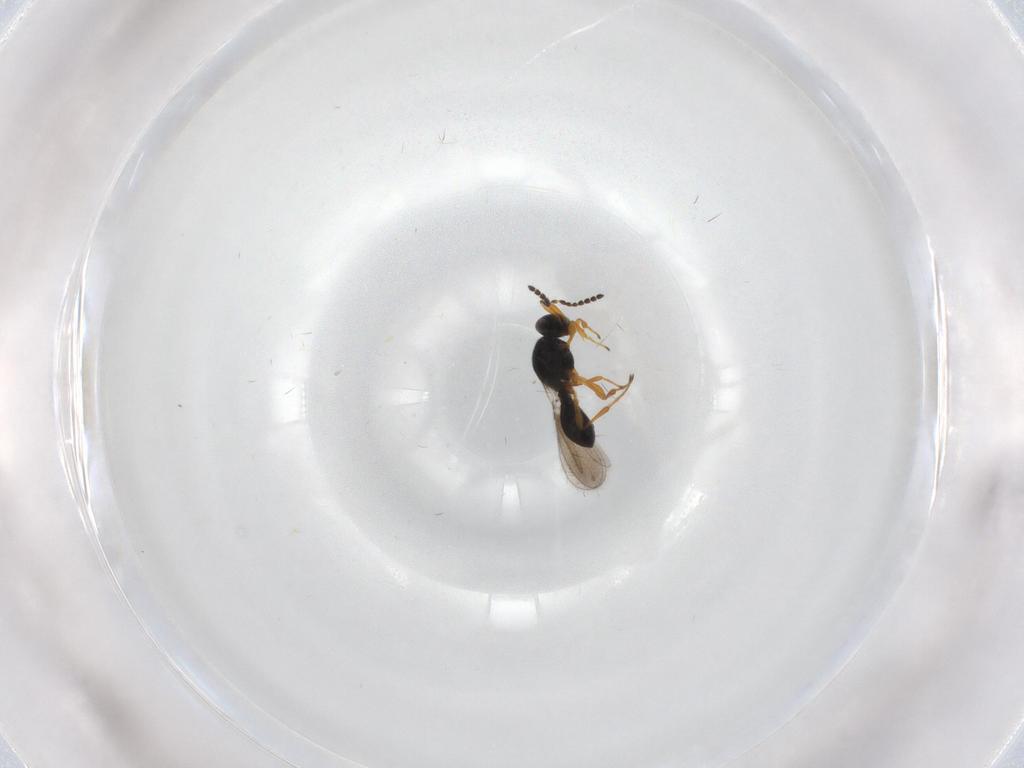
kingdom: Animalia
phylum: Arthropoda
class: Insecta
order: Hymenoptera
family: Platygastridae
